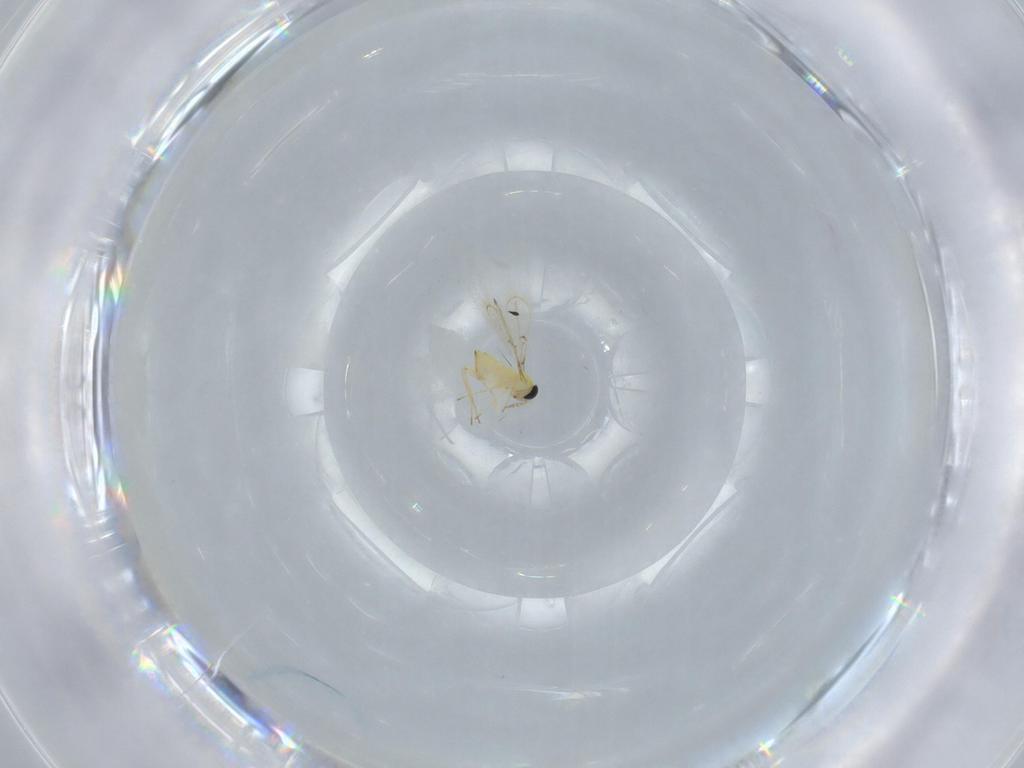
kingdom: Animalia
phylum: Arthropoda
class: Insecta
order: Hymenoptera
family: Trichogrammatidae
